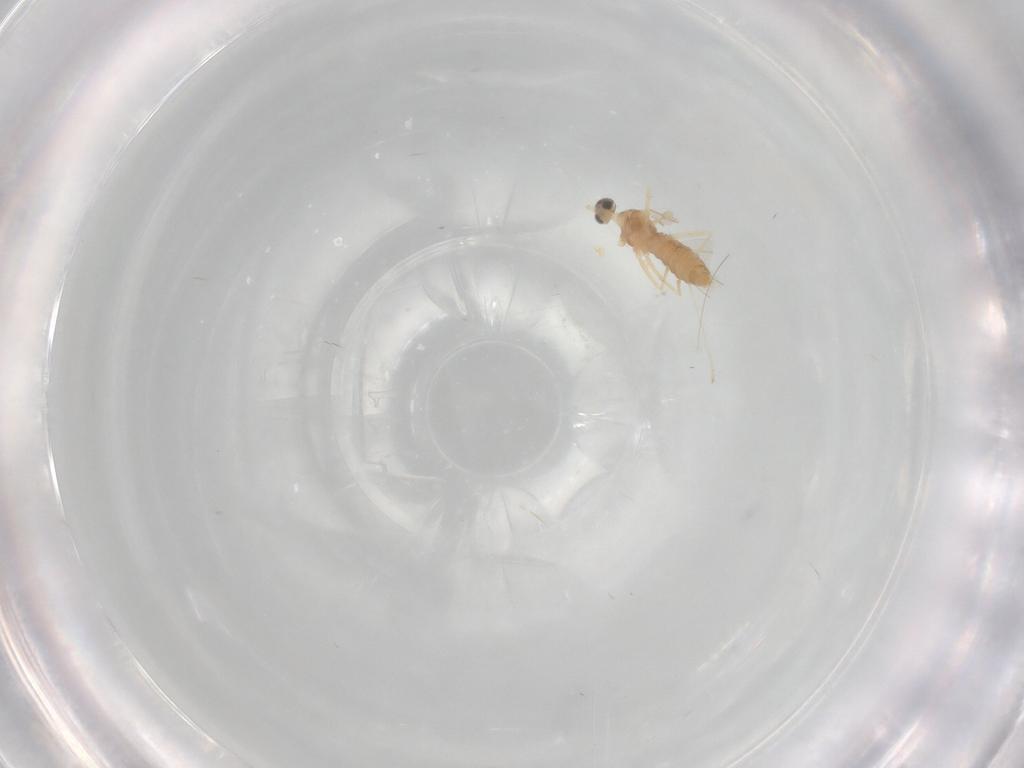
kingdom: Animalia
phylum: Arthropoda
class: Insecta
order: Diptera
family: Cecidomyiidae
